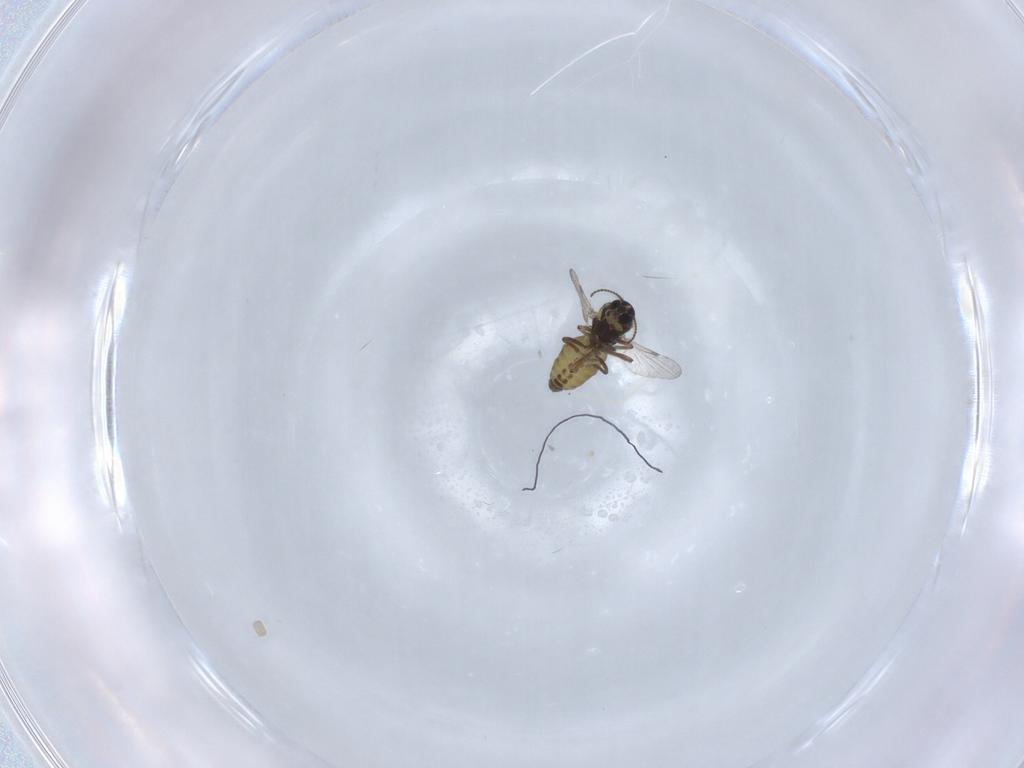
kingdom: Animalia
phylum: Arthropoda
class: Insecta
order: Diptera
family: Ceratopogonidae
